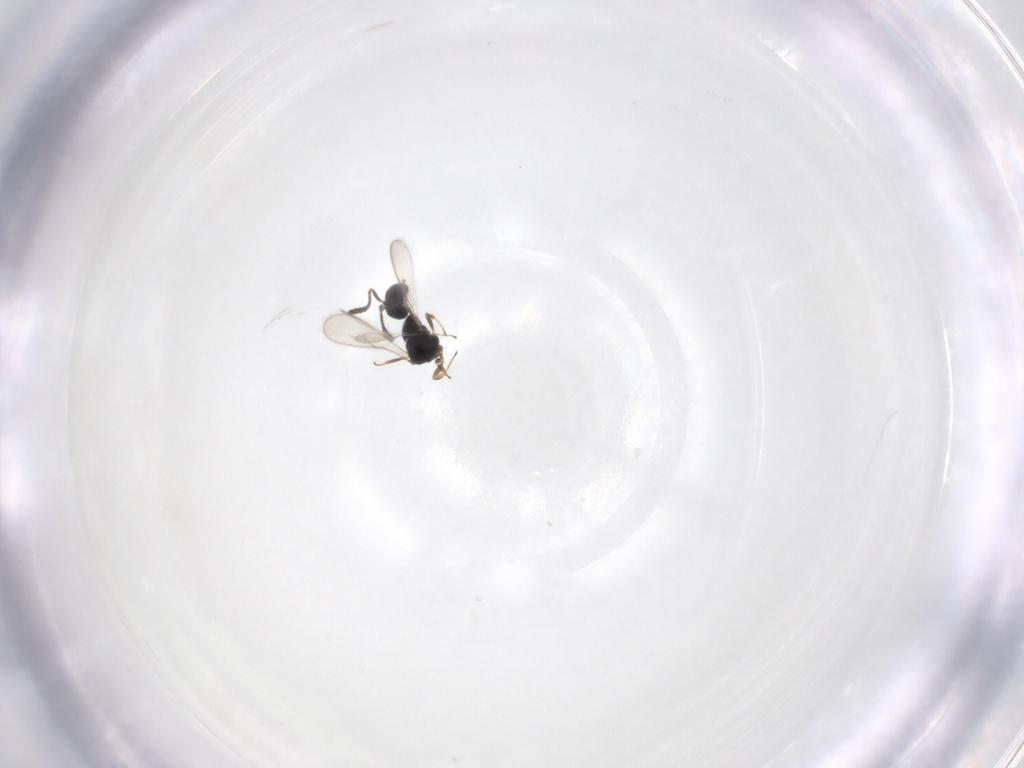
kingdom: Animalia
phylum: Arthropoda
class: Insecta
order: Hymenoptera
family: Scelionidae
